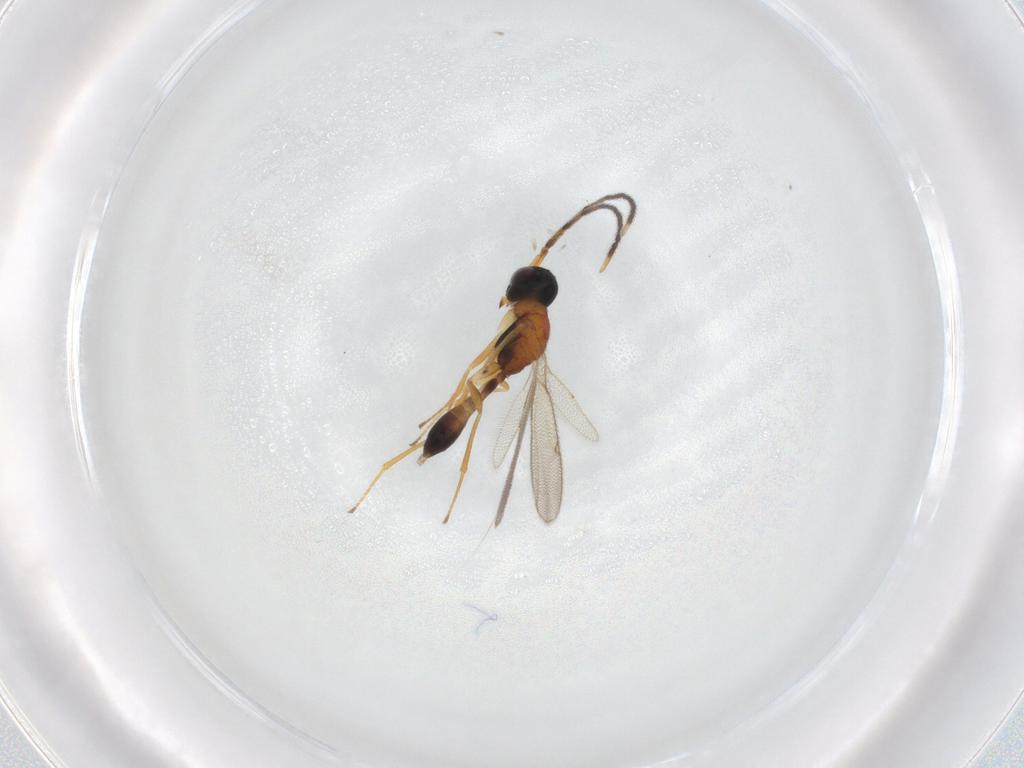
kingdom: Animalia
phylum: Arthropoda
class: Insecta
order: Hymenoptera
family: Pteromalidae
